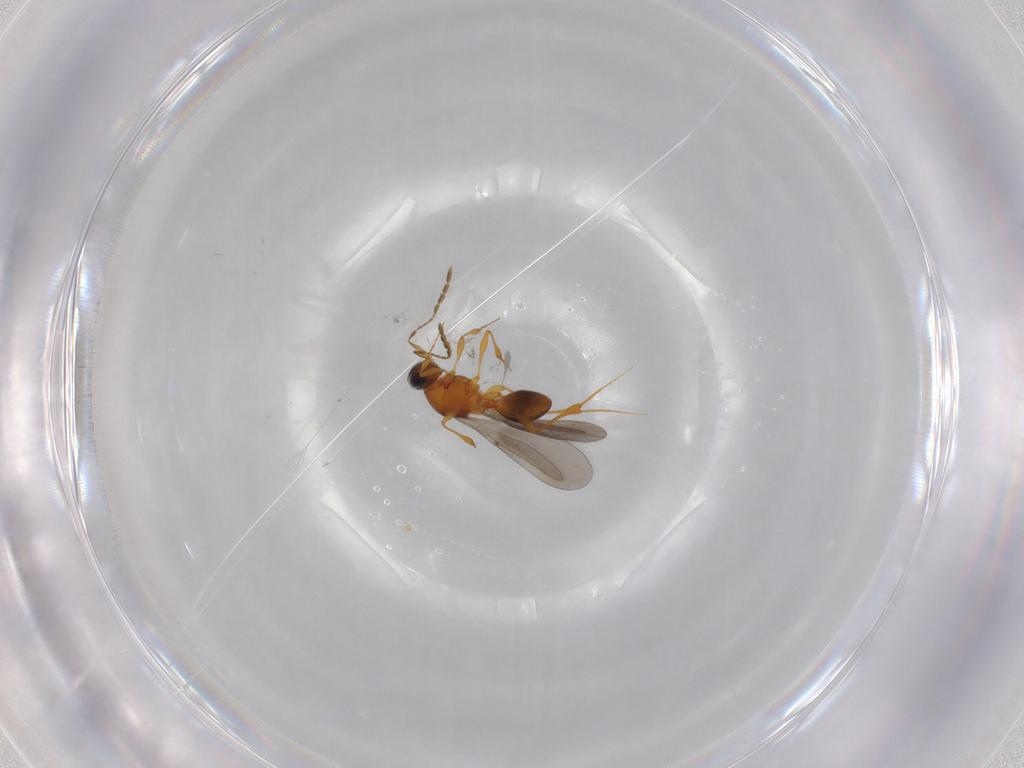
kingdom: Animalia
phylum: Arthropoda
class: Insecta
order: Hymenoptera
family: Platygastridae
